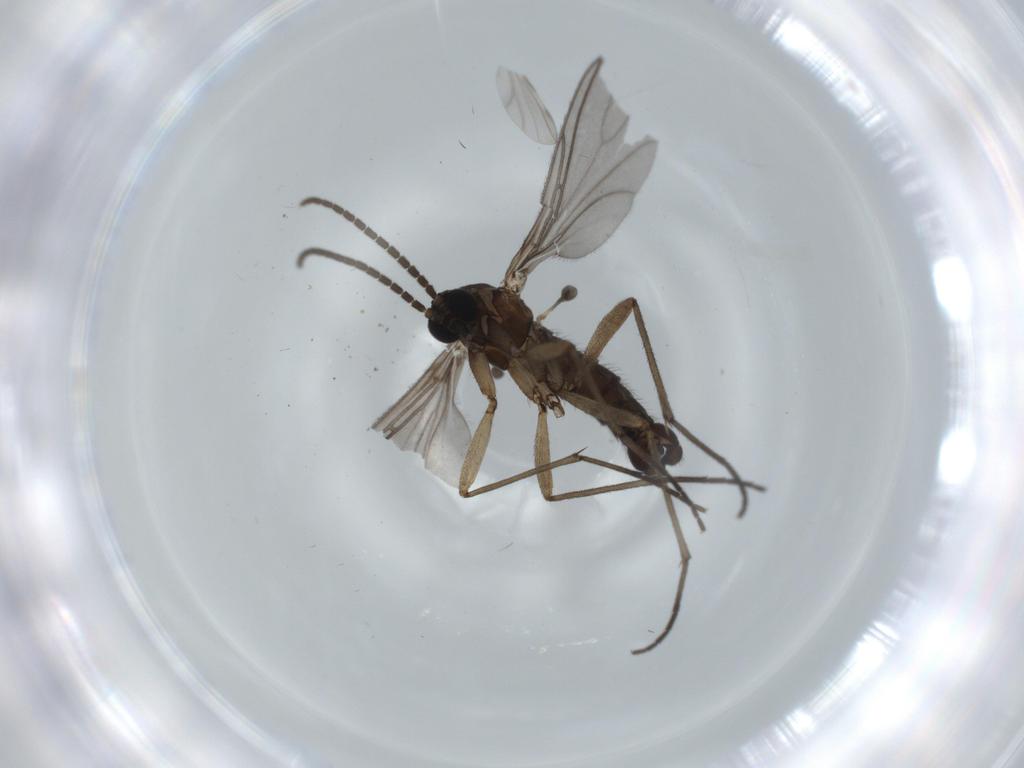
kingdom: Animalia
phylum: Arthropoda
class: Insecta
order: Diptera
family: Sciaridae
